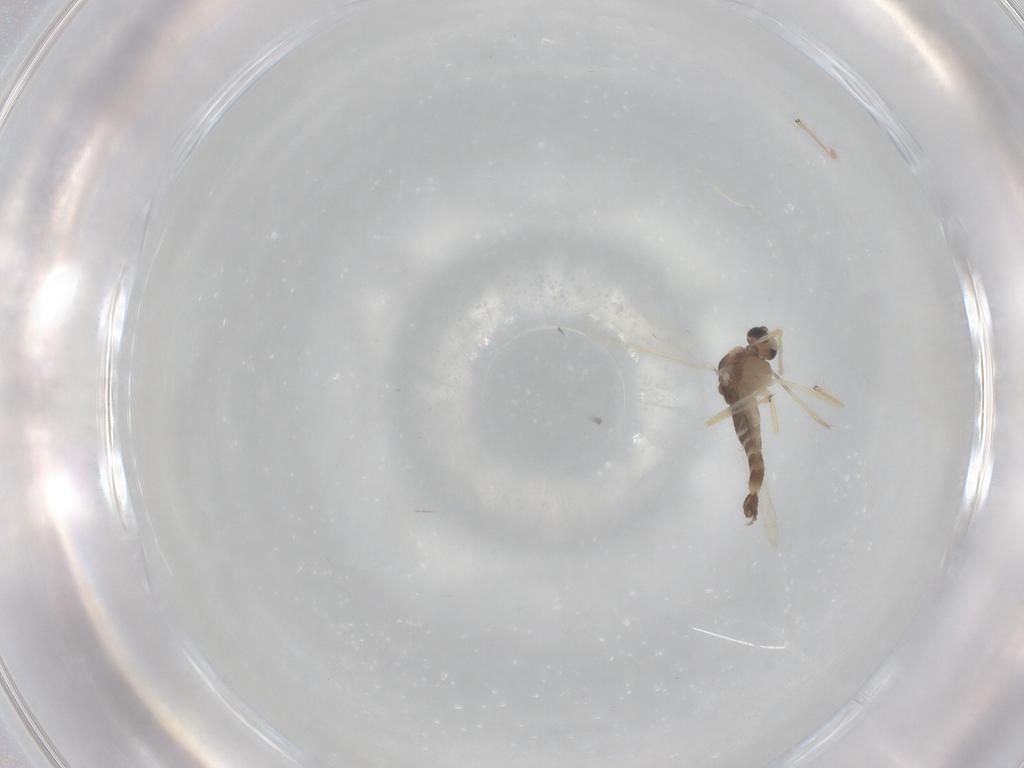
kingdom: Animalia
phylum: Arthropoda
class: Insecta
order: Diptera
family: Chironomidae
